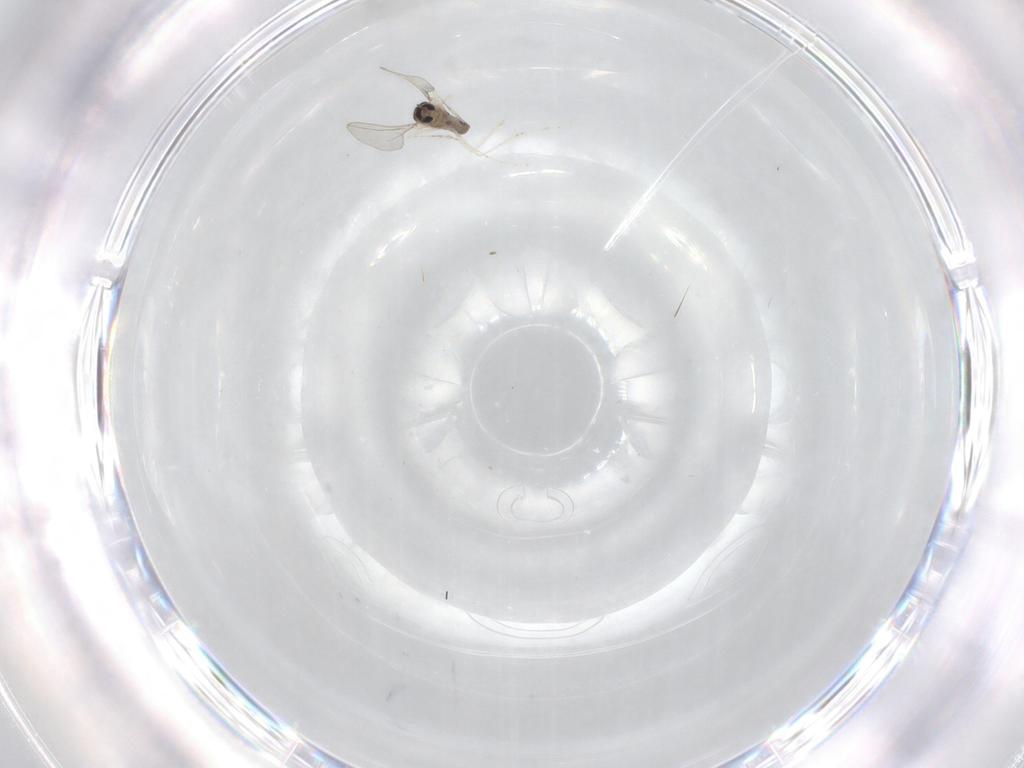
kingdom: Animalia
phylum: Arthropoda
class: Insecta
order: Diptera
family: Cecidomyiidae
